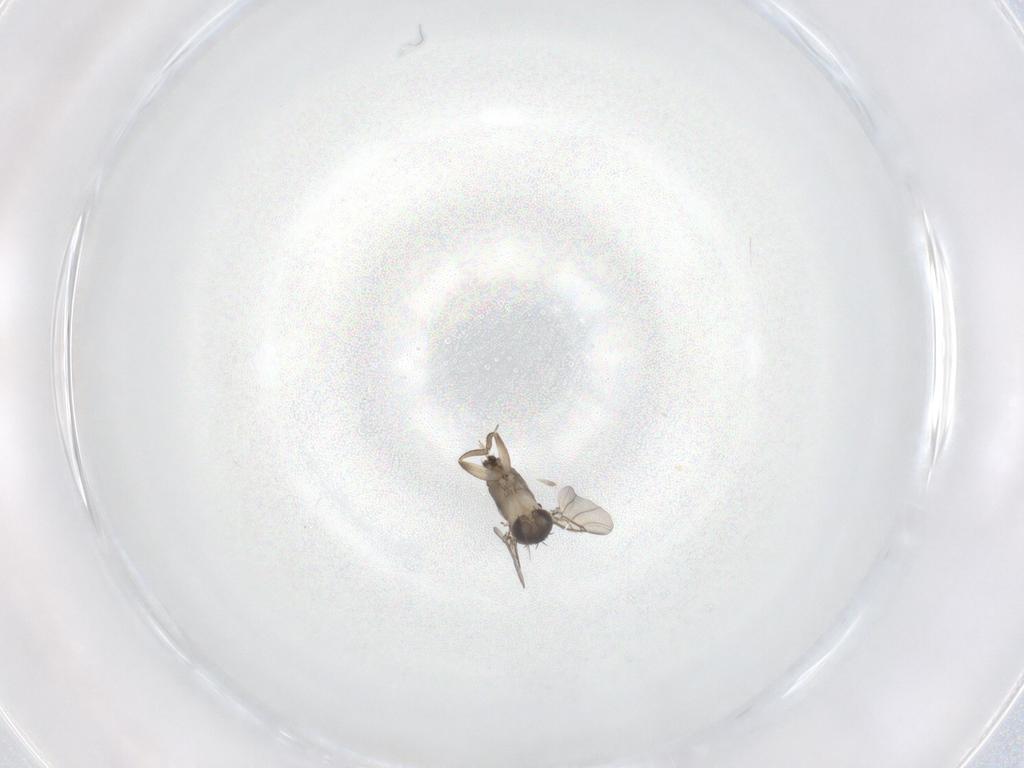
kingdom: Animalia
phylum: Arthropoda
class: Insecta
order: Diptera
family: Phoridae
